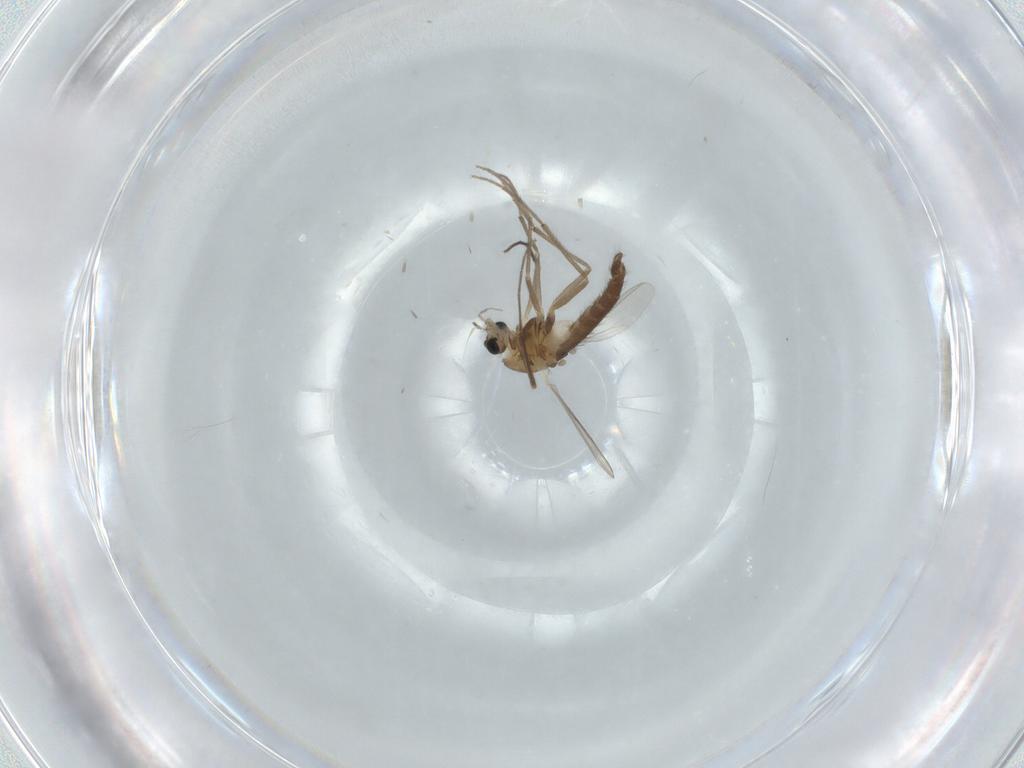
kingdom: Animalia
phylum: Arthropoda
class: Insecta
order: Diptera
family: Chironomidae
